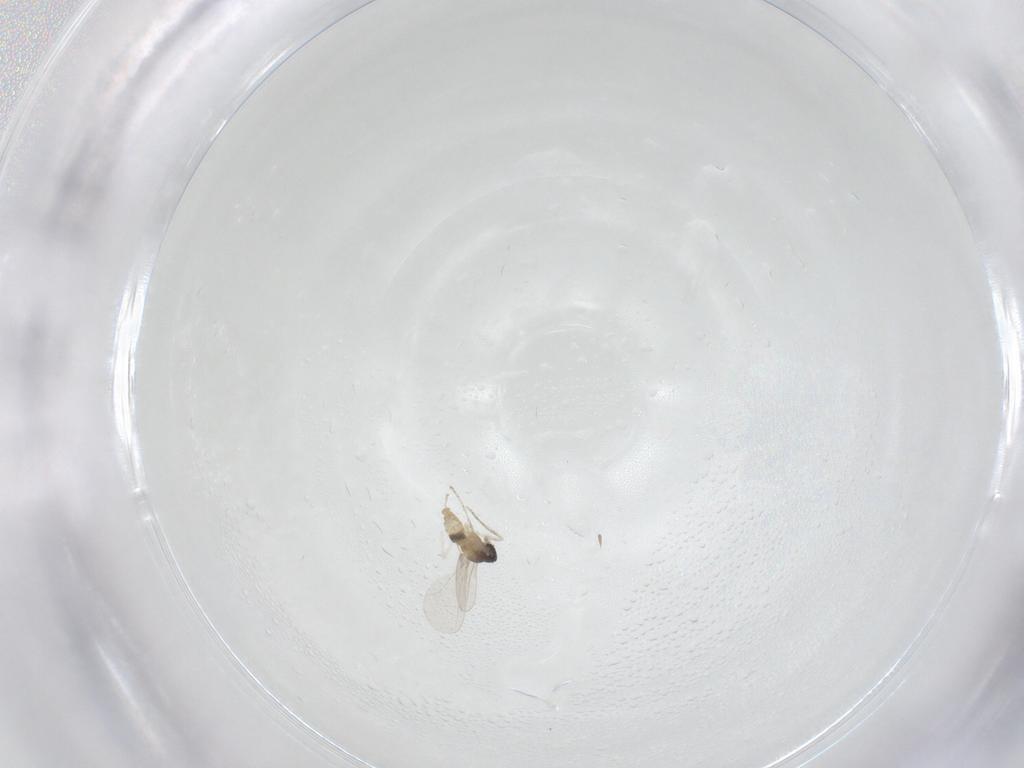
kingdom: Animalia
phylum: Arthropoda
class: Insecta
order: Diptera
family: Cecidomyiidae
